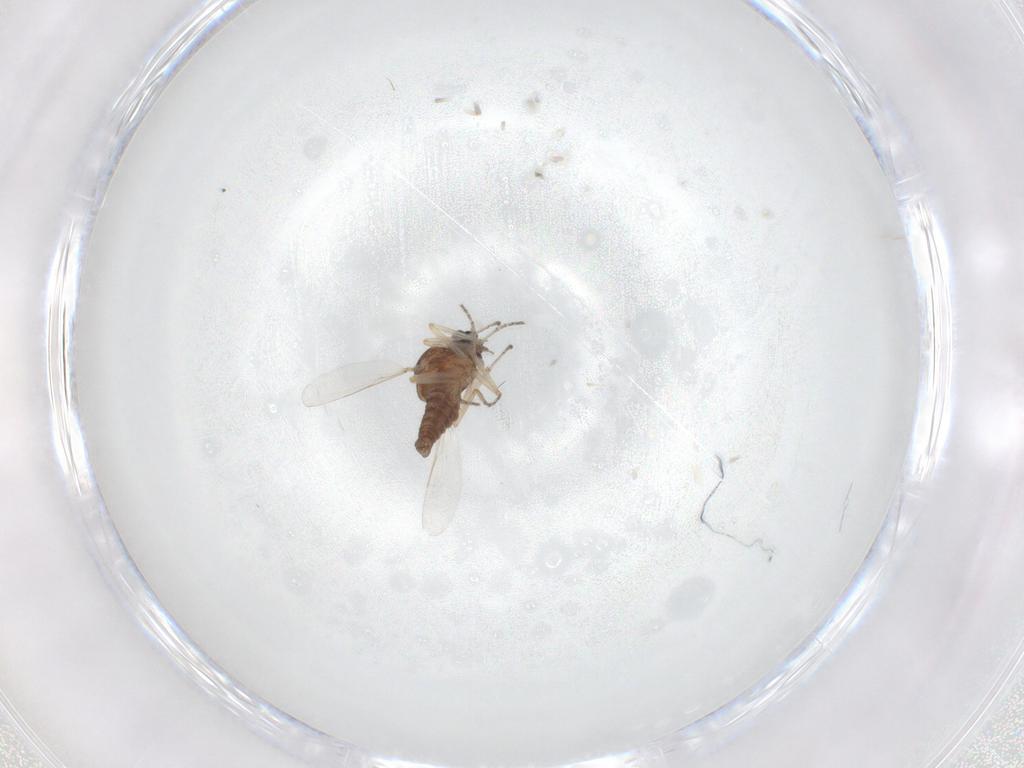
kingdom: Animalia
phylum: Arthropoda
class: Insecta
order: Diptera
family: Ceratopogonidae
